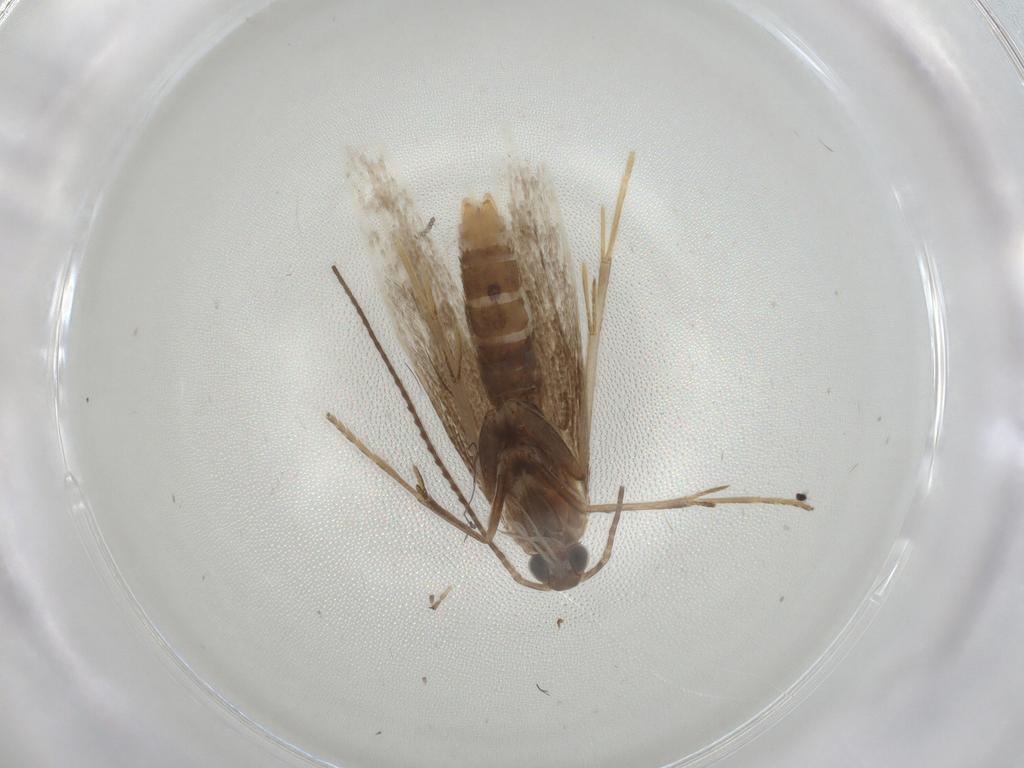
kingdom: Animalia
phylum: Arthropoda
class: Insecta
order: Lepidoptera
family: Coleophoridae
